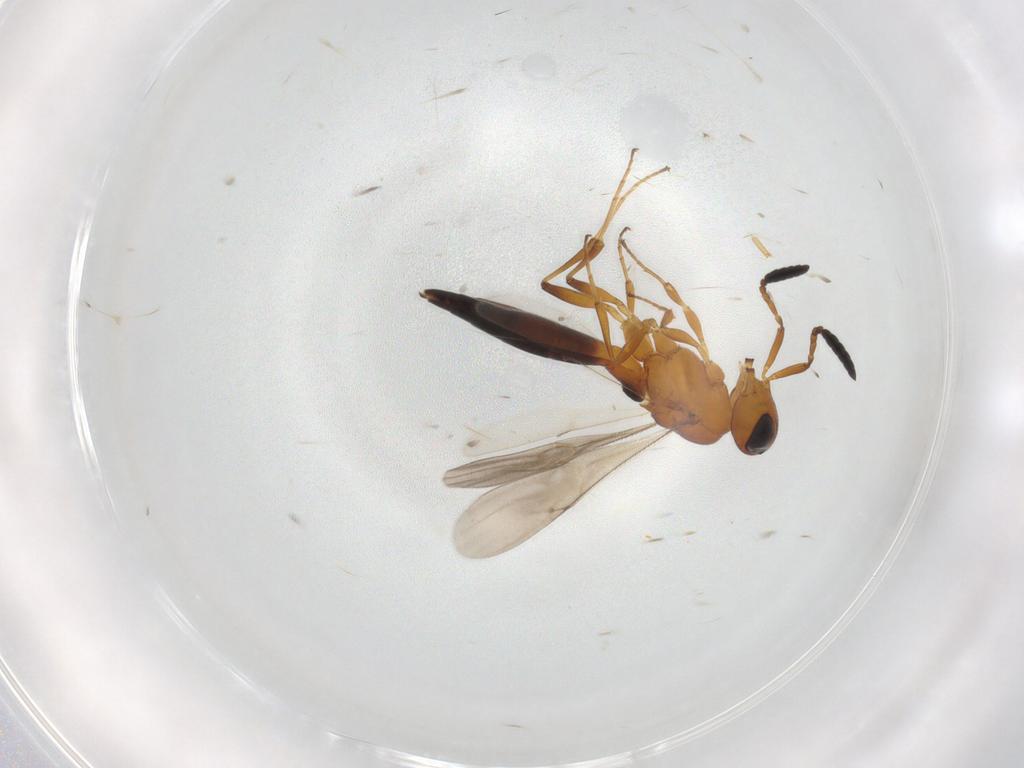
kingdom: Animalia
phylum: Arthropoda
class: Insecta
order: Hymenoptera
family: Scelionidae
